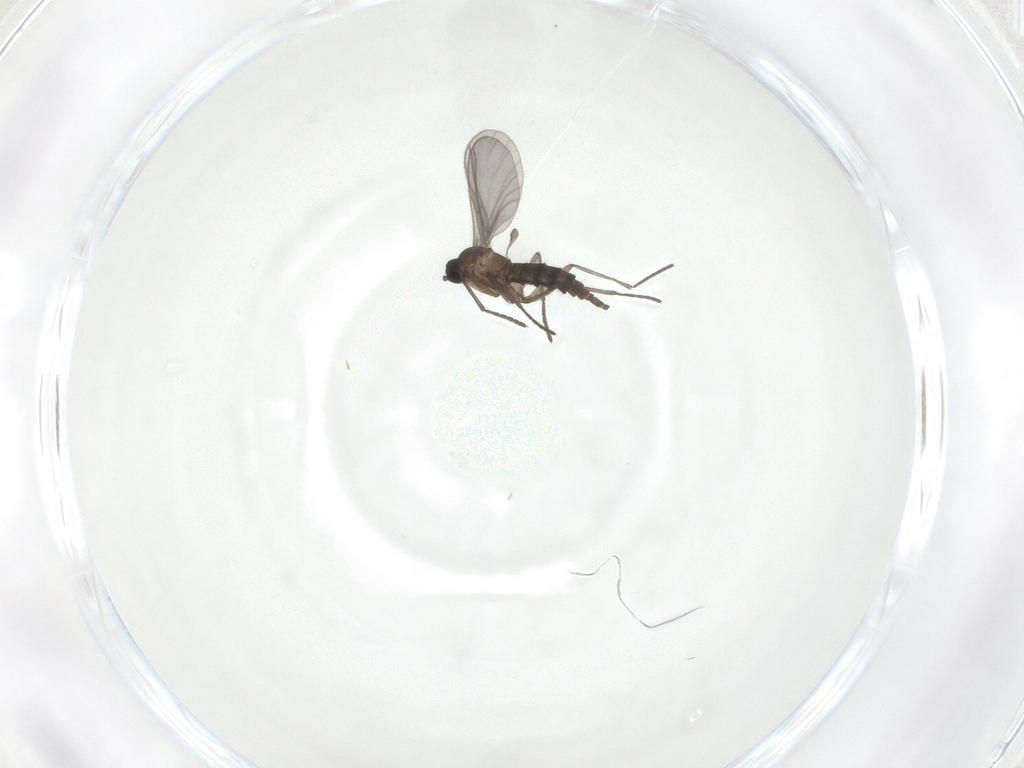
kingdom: Animalia
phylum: Arthropoda
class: Insecta
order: Diptera
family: Sciaridae
